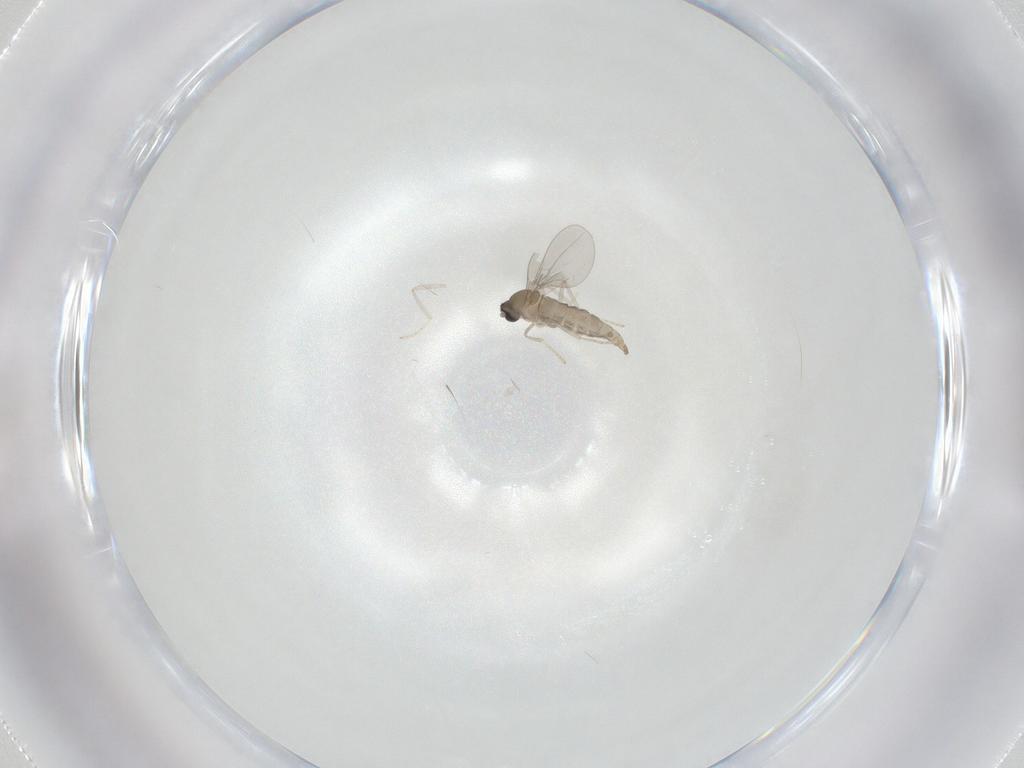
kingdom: Animalia
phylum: Arthropoda
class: Insecta
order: Diptera
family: Cecidomyiidae
